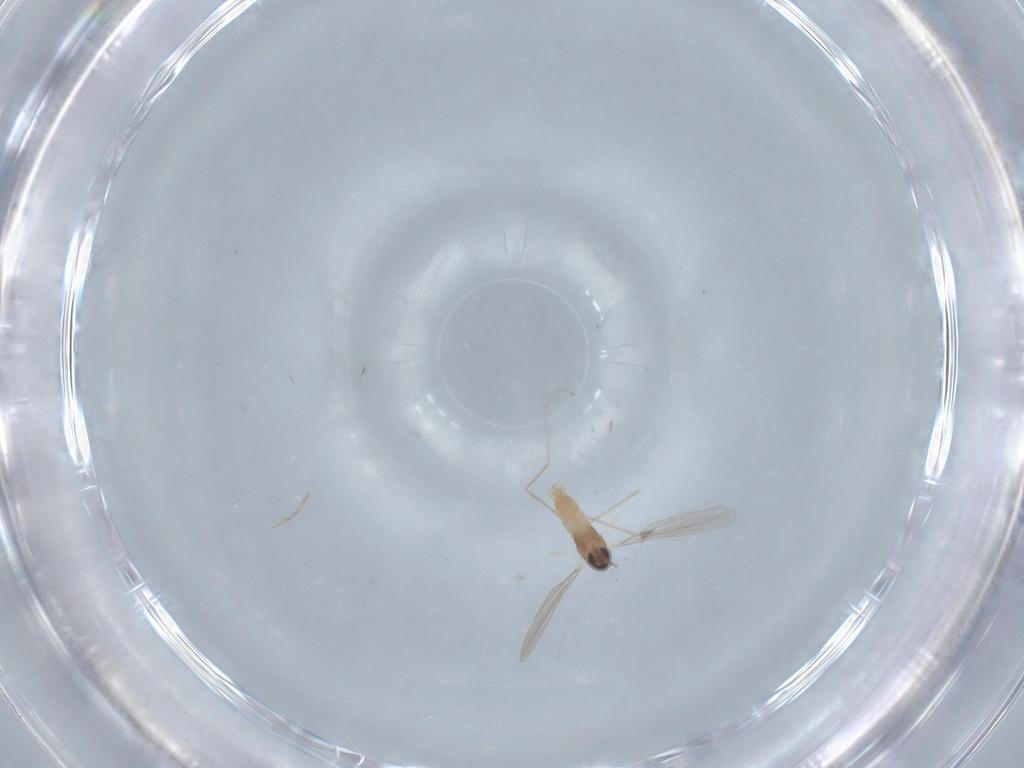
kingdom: Animalia
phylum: Arthropoda
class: Insecta
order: Diptera
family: Cecidomyiidae
